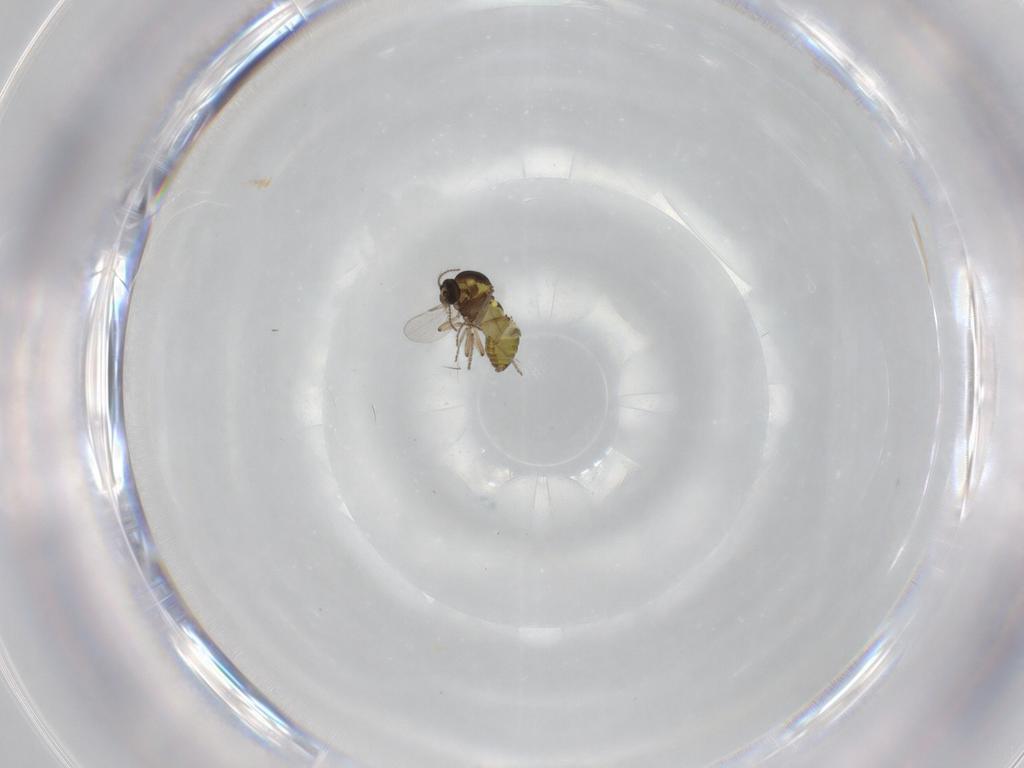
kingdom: Animalia
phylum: Arthropoda
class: Insecta
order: Diptera
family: Ceratopogonidae
